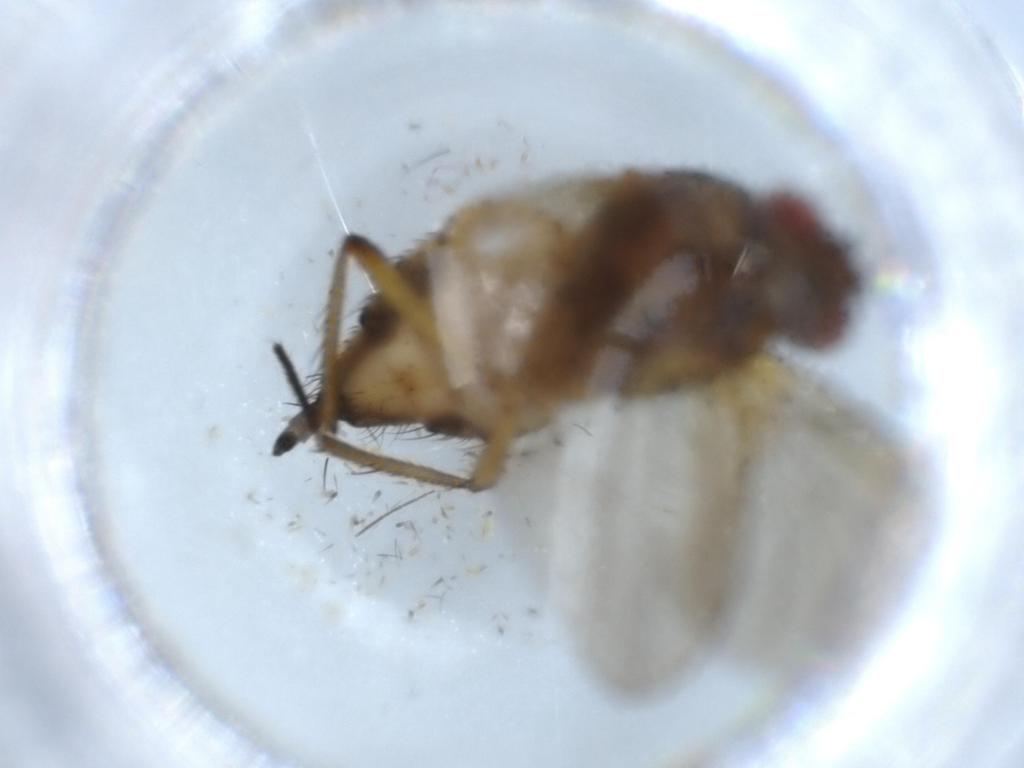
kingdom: Animalia
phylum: Arthropoda
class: Insecta
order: Diptera
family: Anthomyiidae
